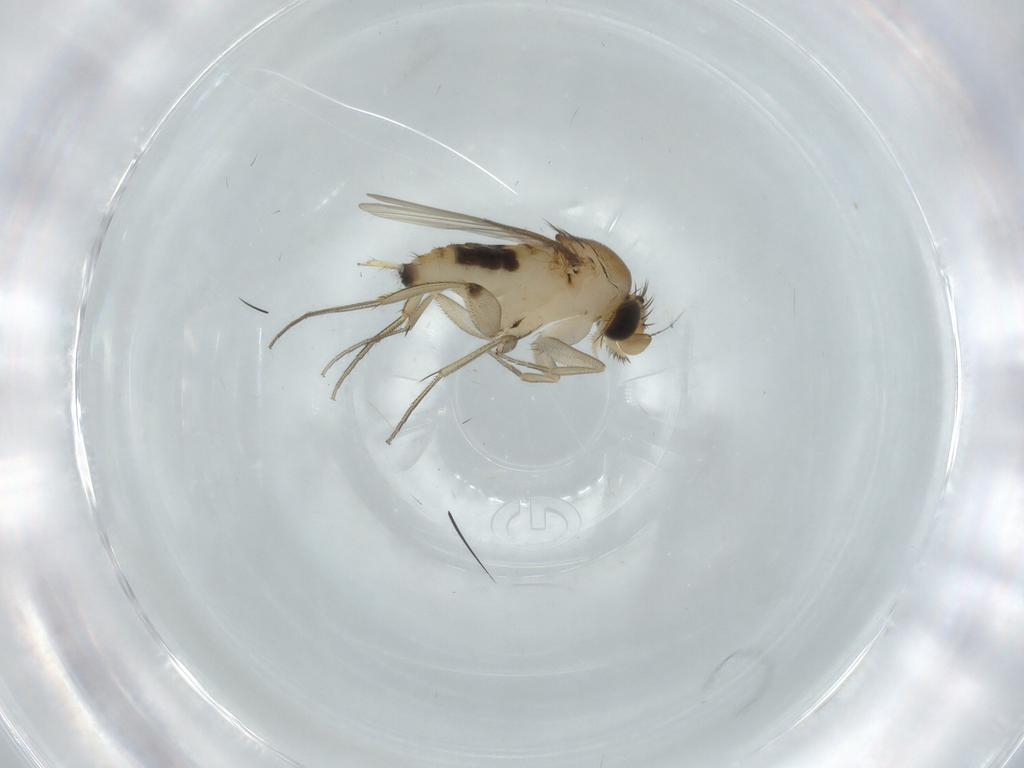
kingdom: Animalia
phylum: Arthropoda
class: Insecta
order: Diptera
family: Phoridae
